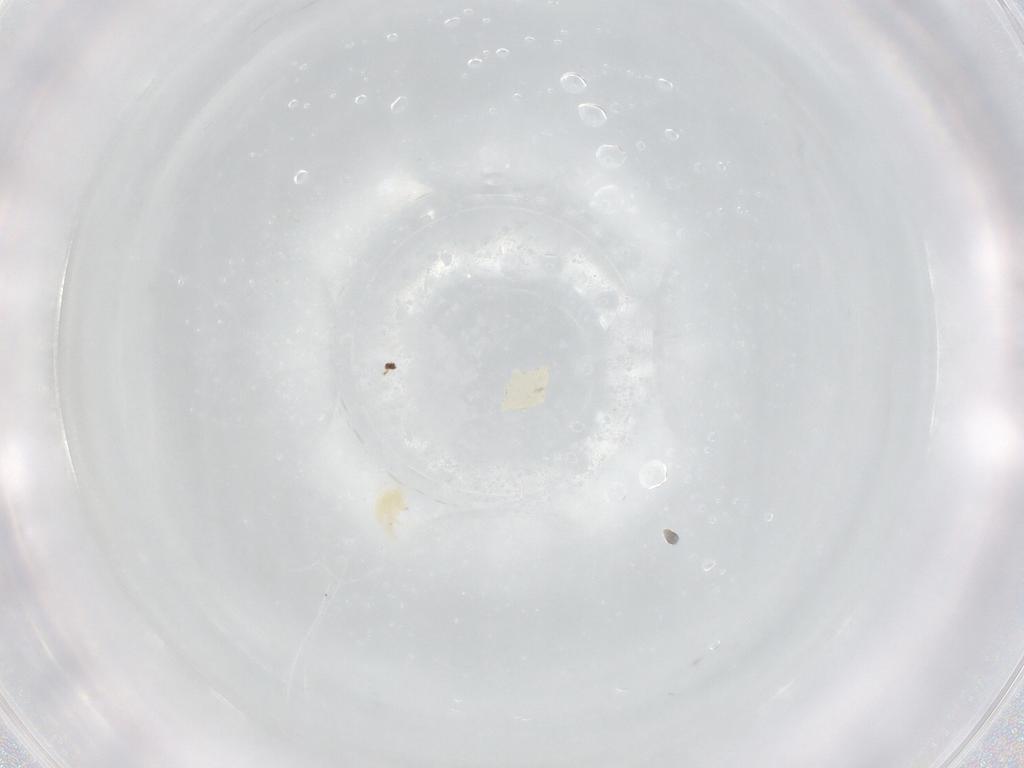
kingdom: Animalia
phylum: Arthropoda
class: Arachnida
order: Trombidiformes
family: Eupodidae
